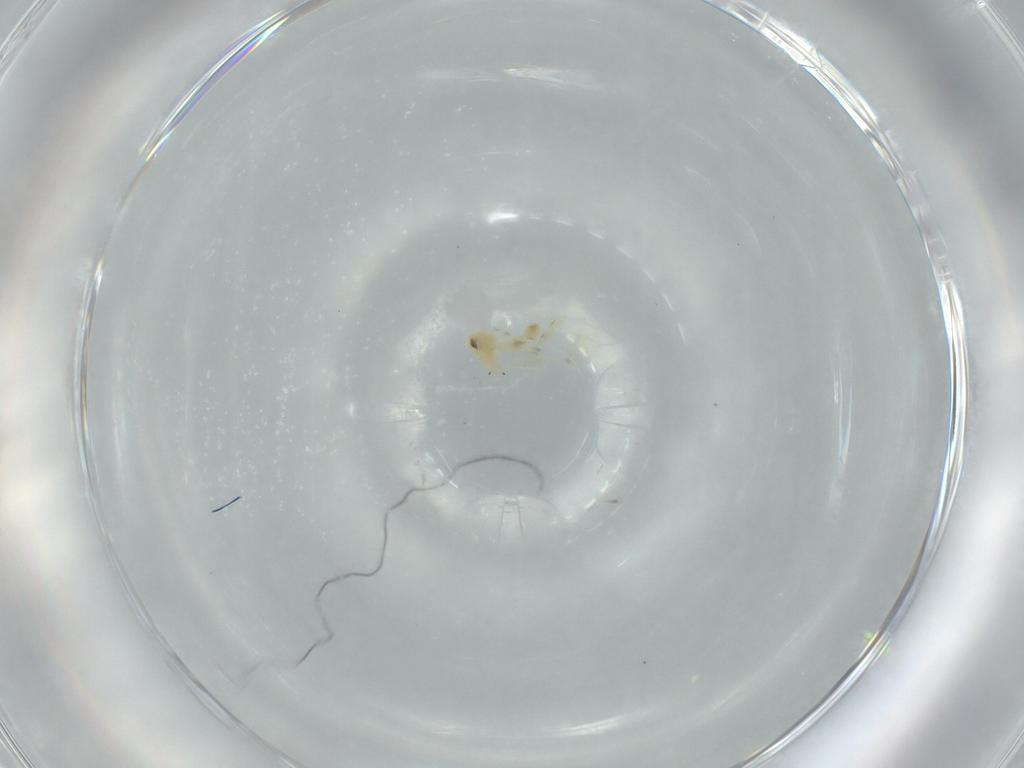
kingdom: Animalia
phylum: Arthropoda
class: Insecta
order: Hemiptera
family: Aleyrodidae
